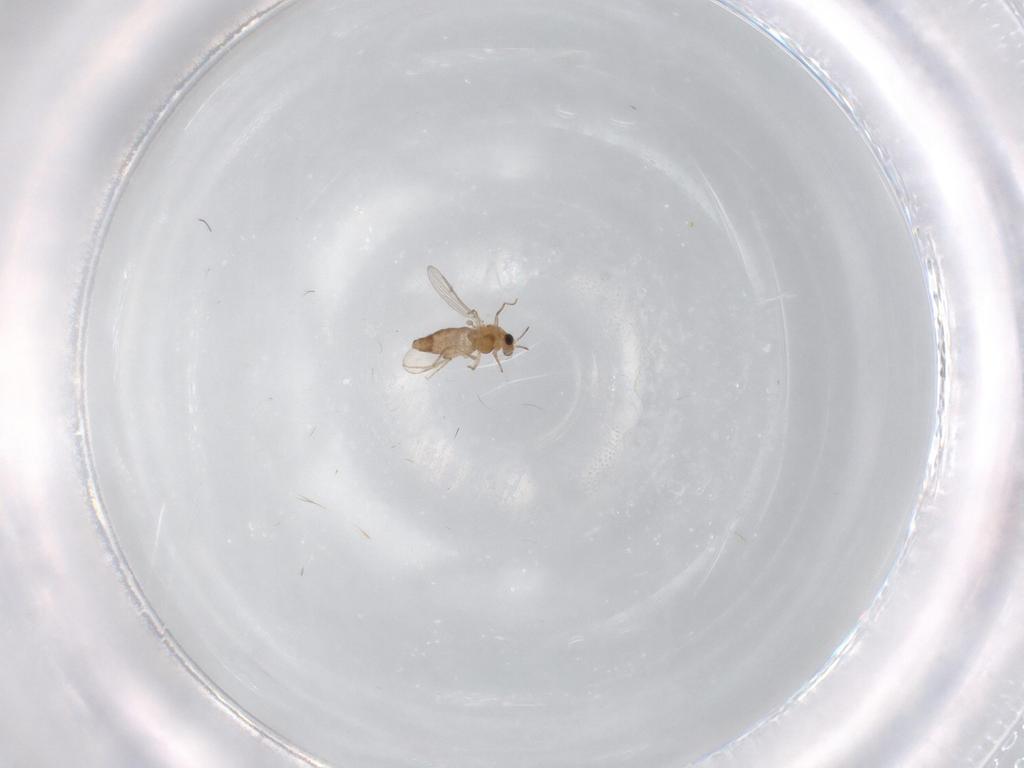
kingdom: Animalia
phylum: Arthropoda
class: Insecta
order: Diptera
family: Chironomidae
